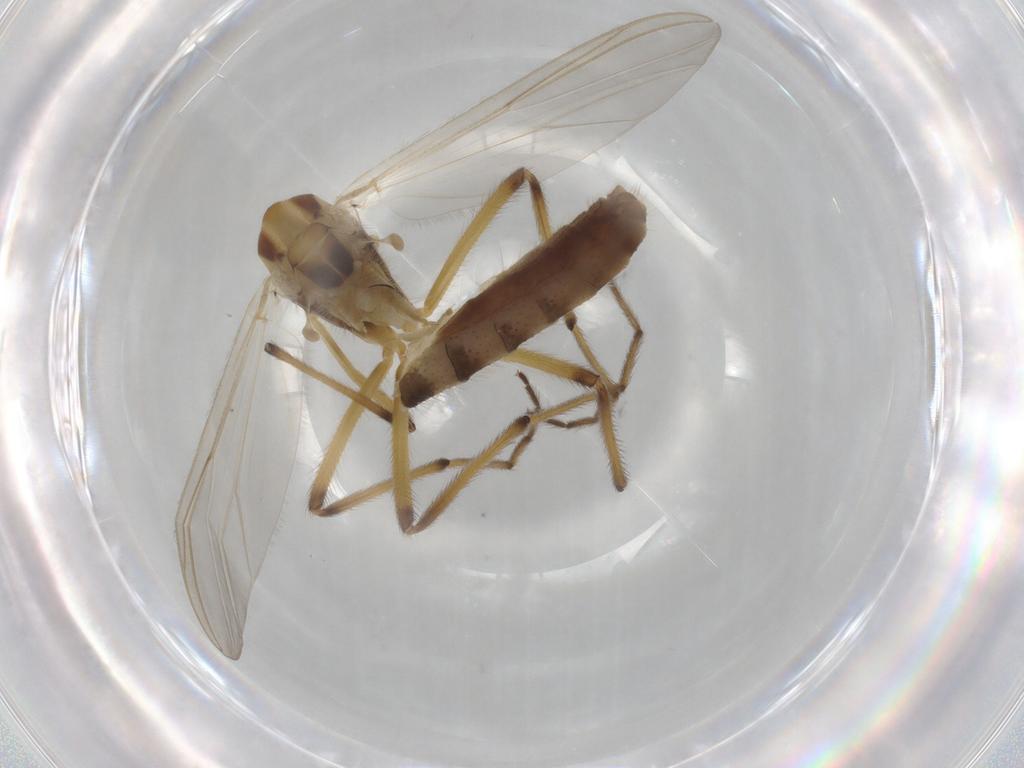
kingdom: Animalia
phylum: Arthropoda
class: Insecta
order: Diptera
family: Chironomidae
